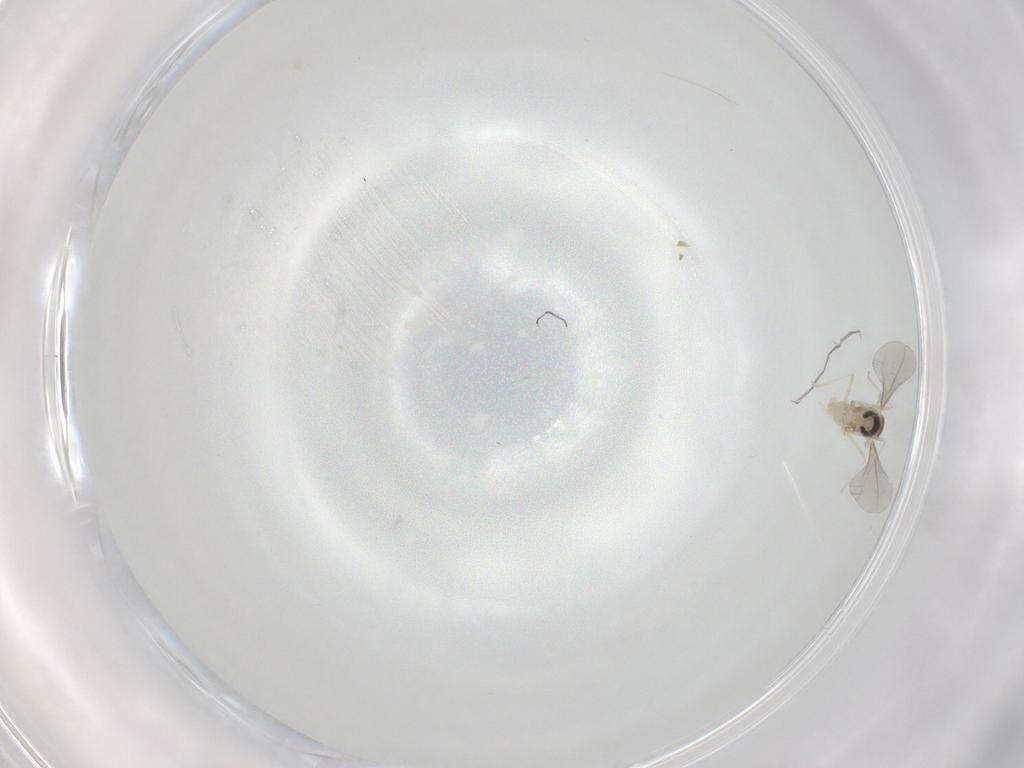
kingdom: Animalia
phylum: Arthropoda
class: Insecta
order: Diptera
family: Cecidomyiidae
